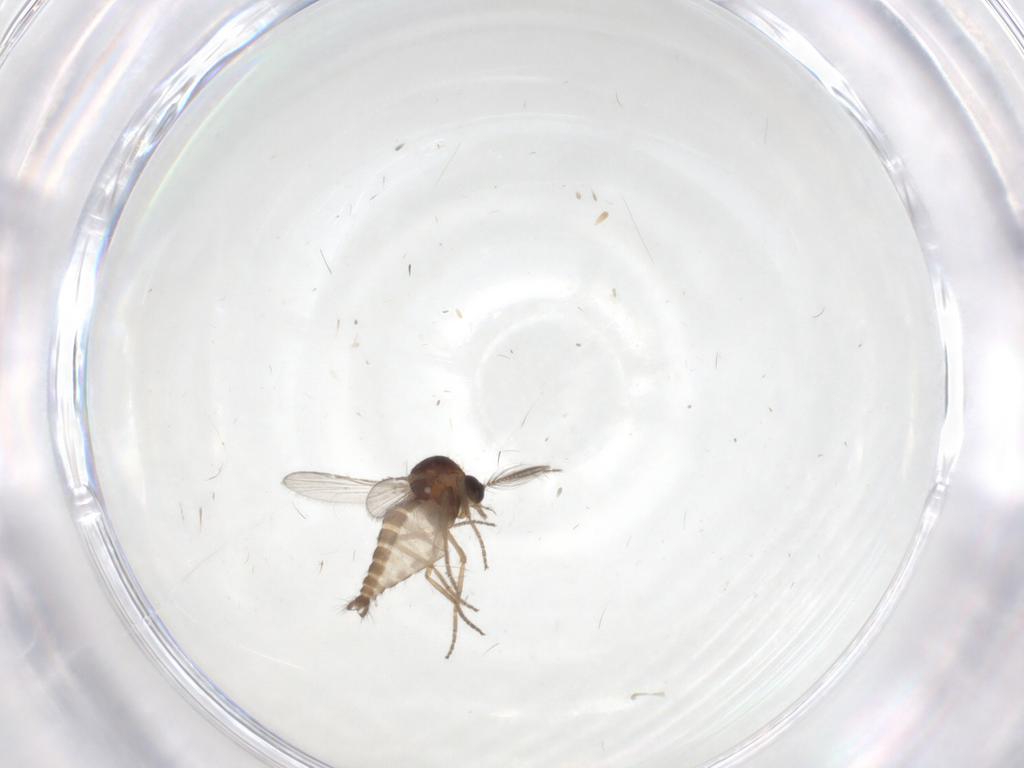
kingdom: Animalia
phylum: Arthropoda
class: Insecta
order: Diptera
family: Ceratopogonidae
